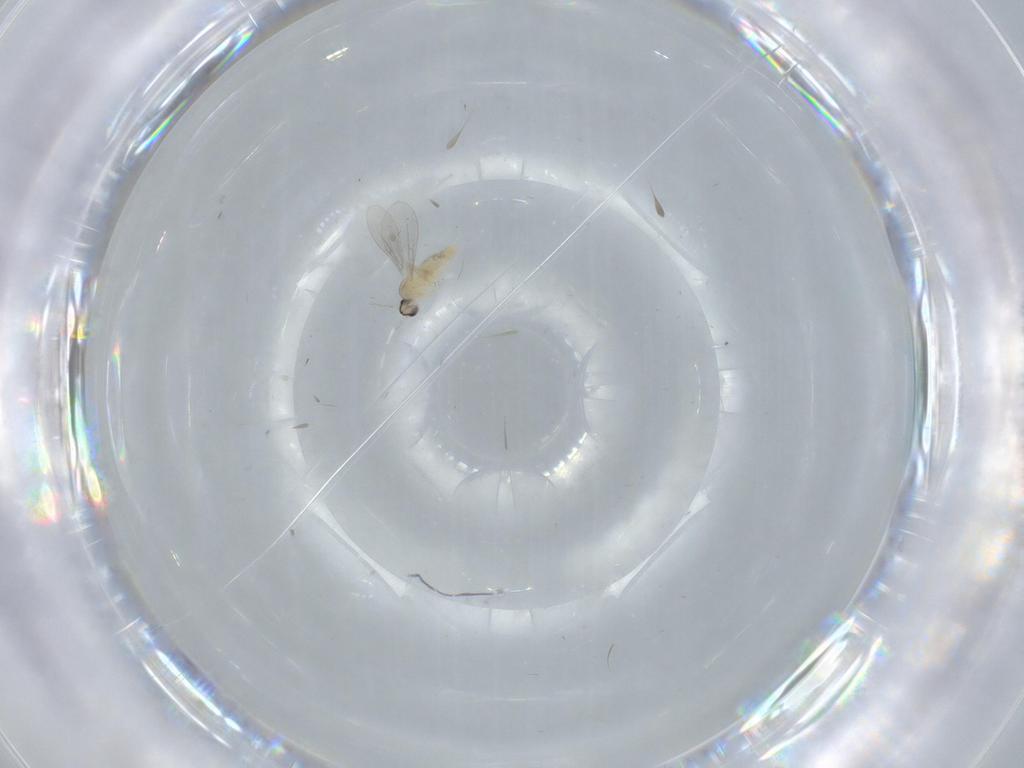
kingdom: Animalia
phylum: Arthropoda
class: Insecta
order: Diptera
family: Cecidomyiidae
